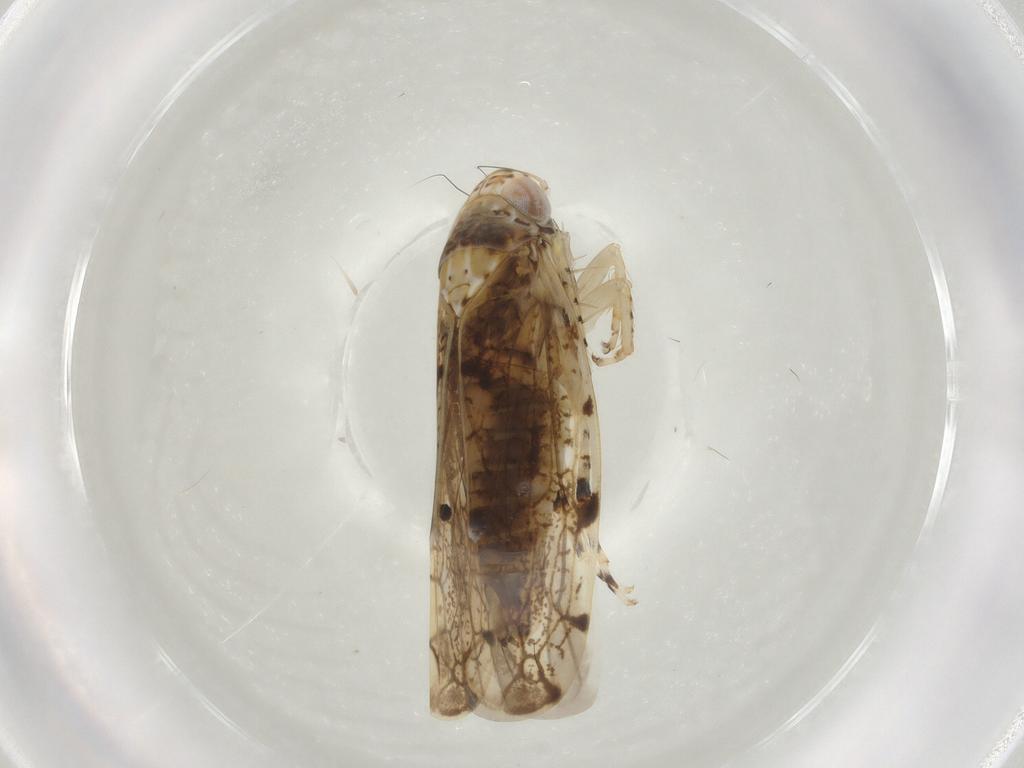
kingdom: Animalia
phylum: Arthropoda
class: Insecta
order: Hemiptera
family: Cicadellidae
